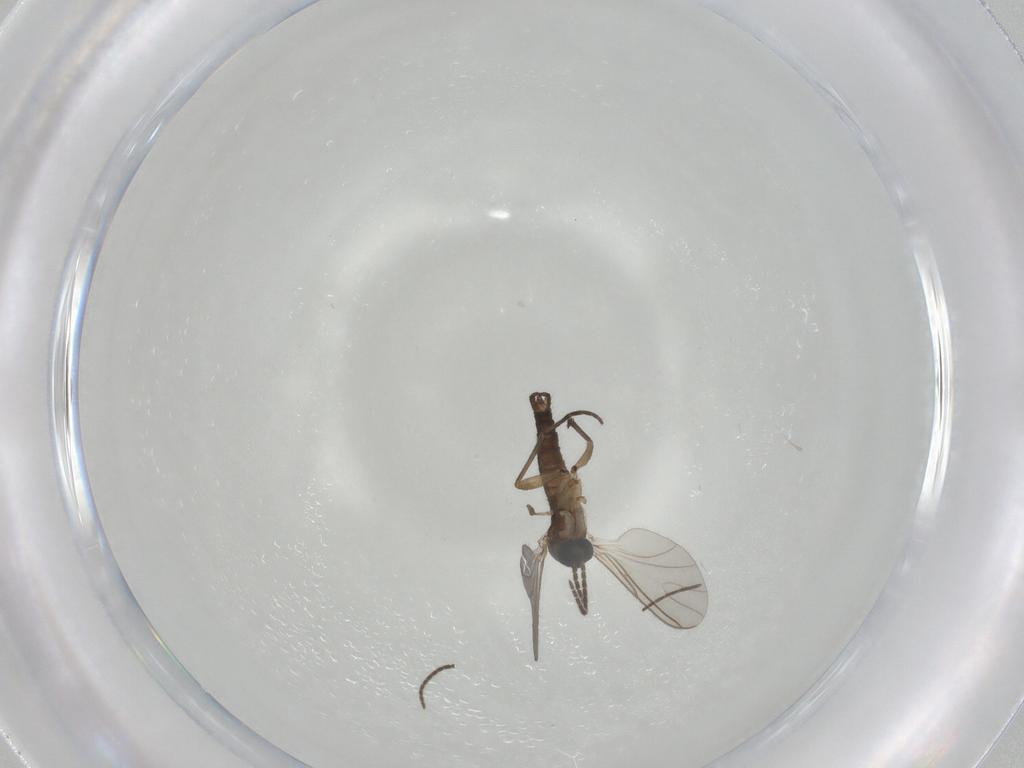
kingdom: Animalia
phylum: Arthropoda
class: Insecta
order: Diptera
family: Sciaridae
